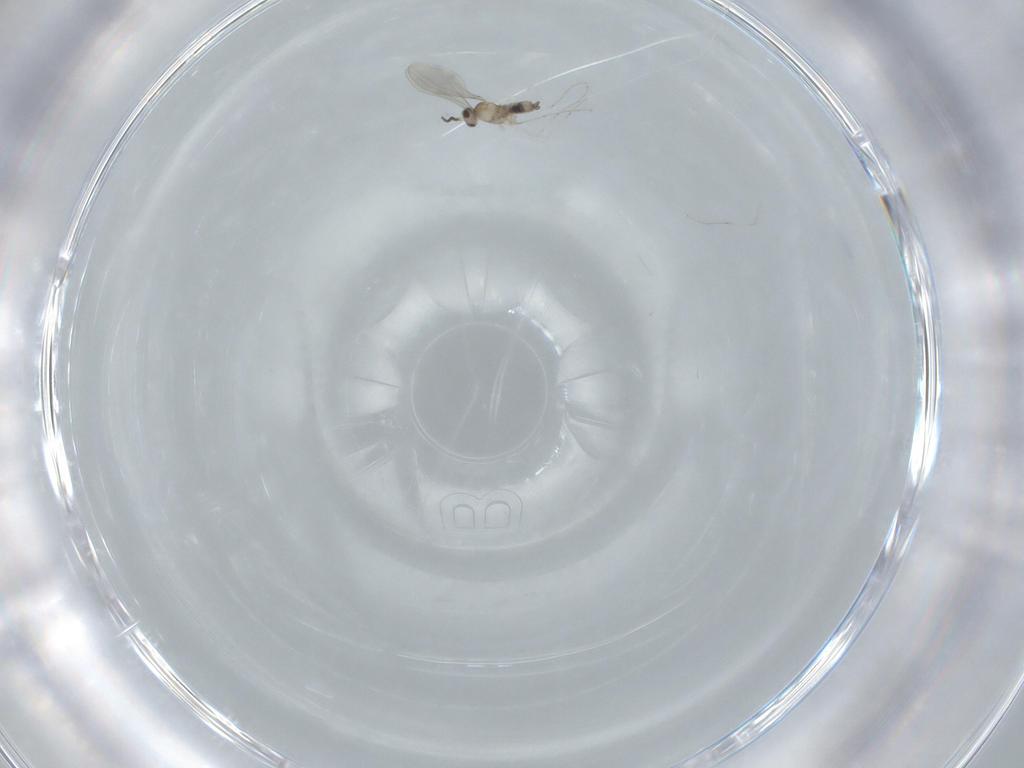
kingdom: Animalia
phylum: Arthropoda
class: Insecta
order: Diptera
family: Cecidomyiidae
